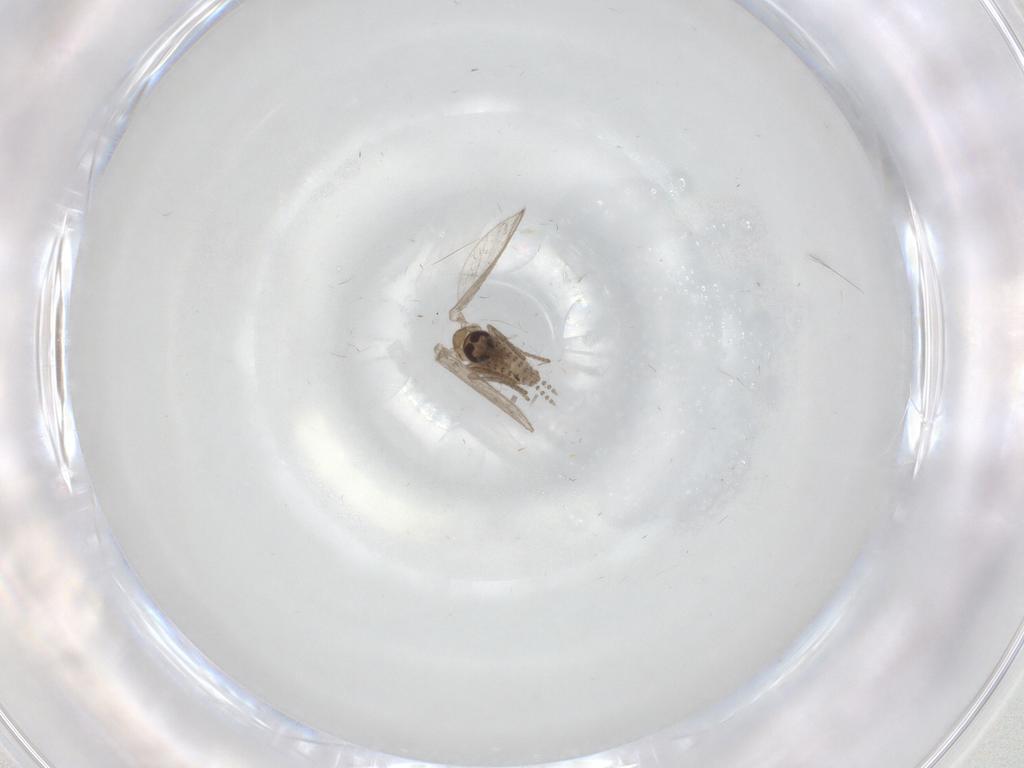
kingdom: Animalia
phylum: Arthropoda
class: Insecta
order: Diptera
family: Psychodidae
